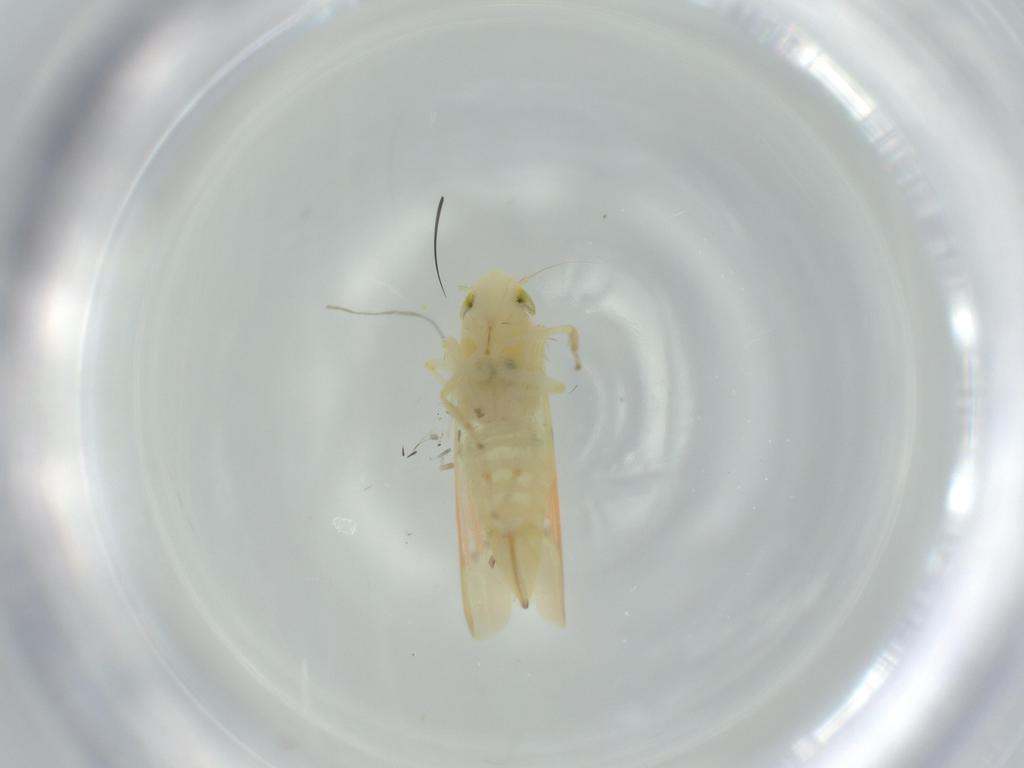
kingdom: Animalia
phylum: Arthropoda
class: Insecta
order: Hemiptera
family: Cicadellidae
